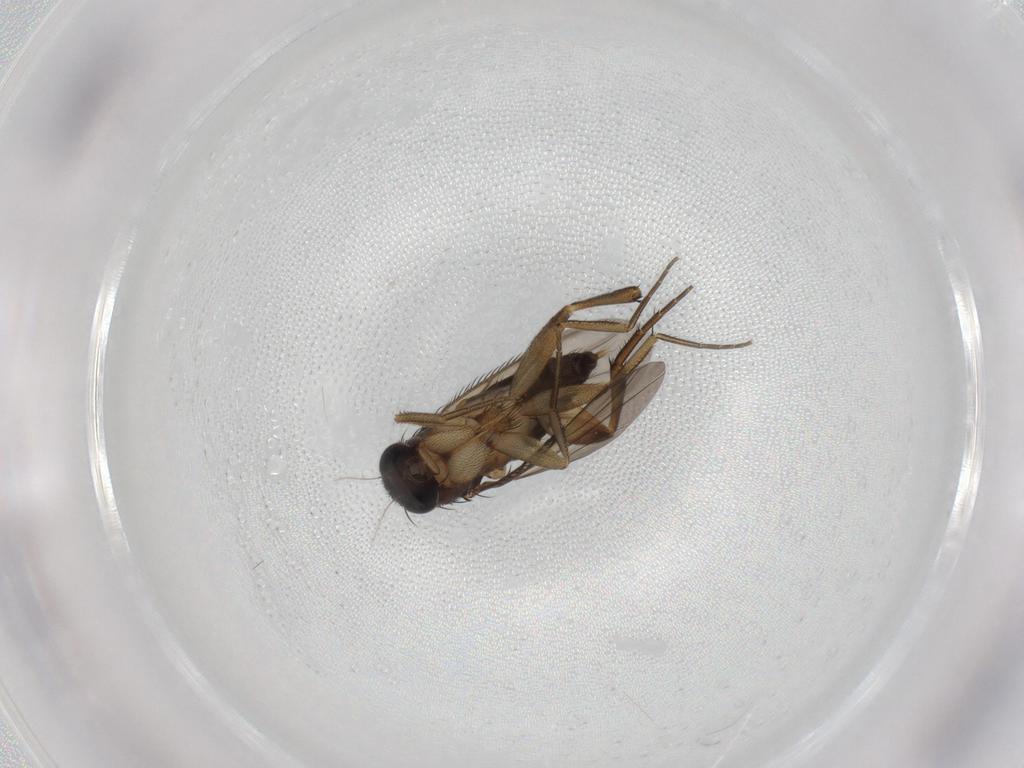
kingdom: Animalia
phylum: Arthropoda
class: Insecta
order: Diptera
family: Phoridae
